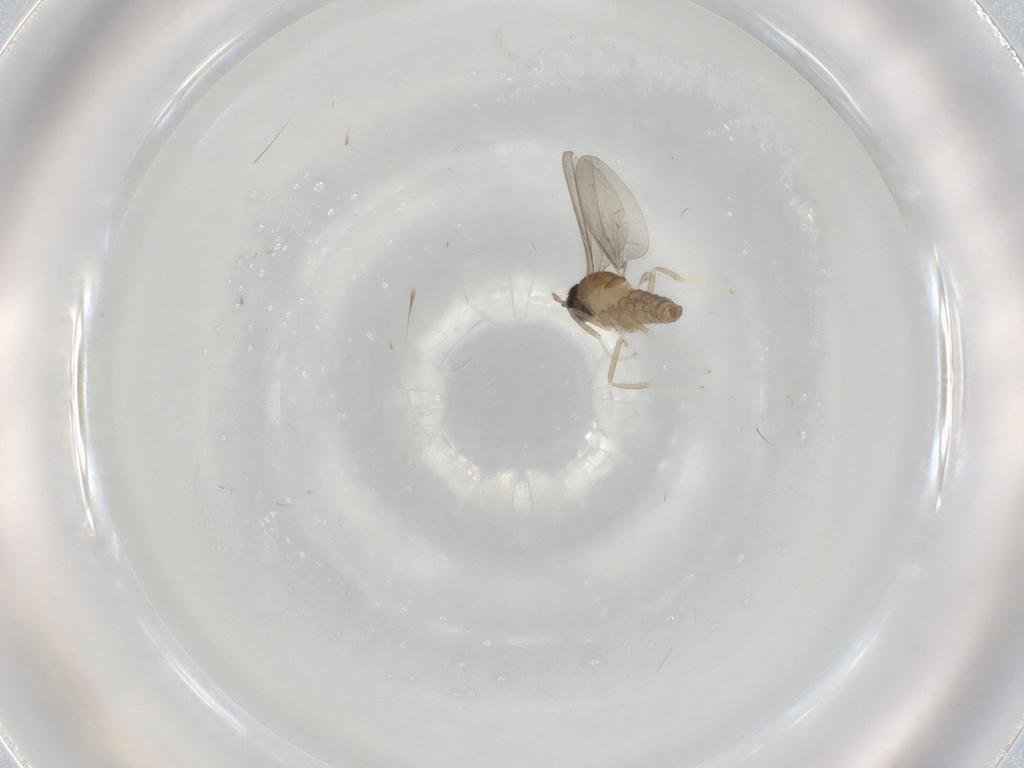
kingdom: Animalia
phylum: Arthropoda
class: Insecta
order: Diptera
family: Cecidomyiidae
